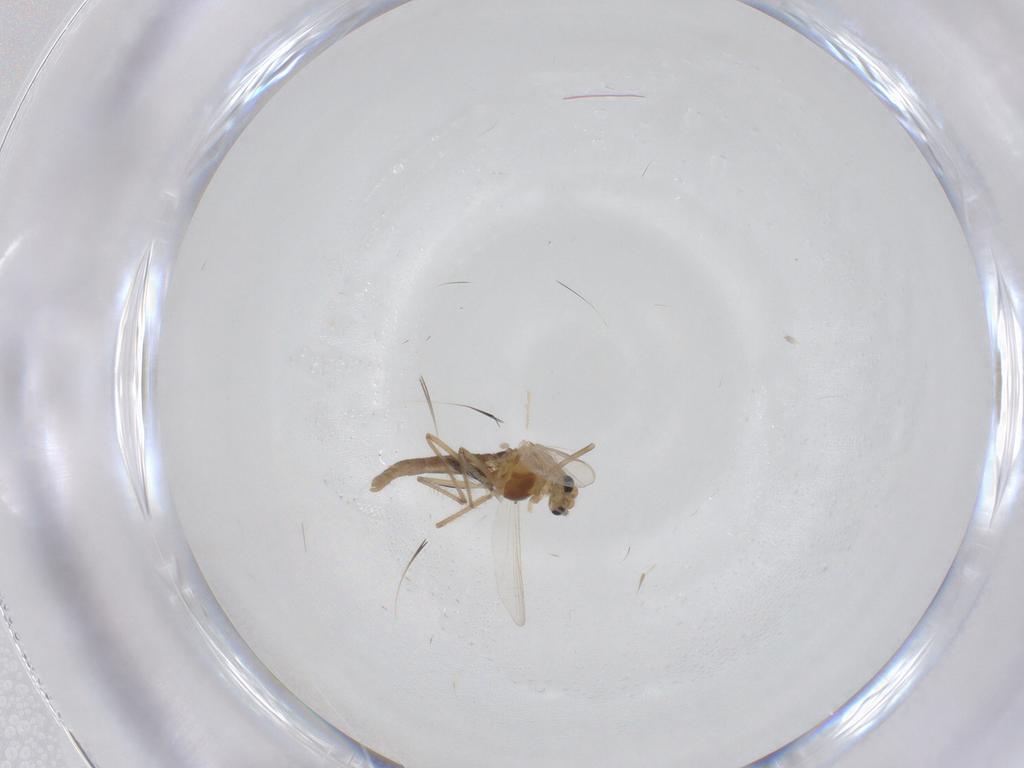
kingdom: Animalia
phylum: Arthropoda
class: Insecta
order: Diptera
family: Chironomidae
